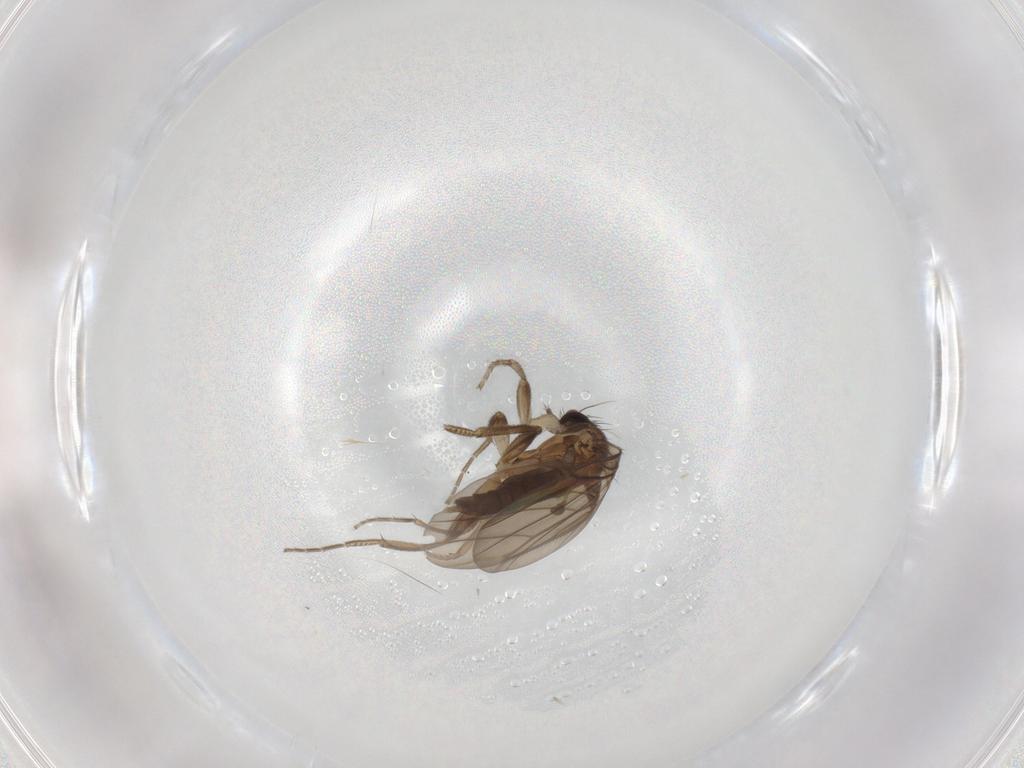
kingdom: Animalia
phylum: Arthropoda
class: Insecta
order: Diptera
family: Phoridae
